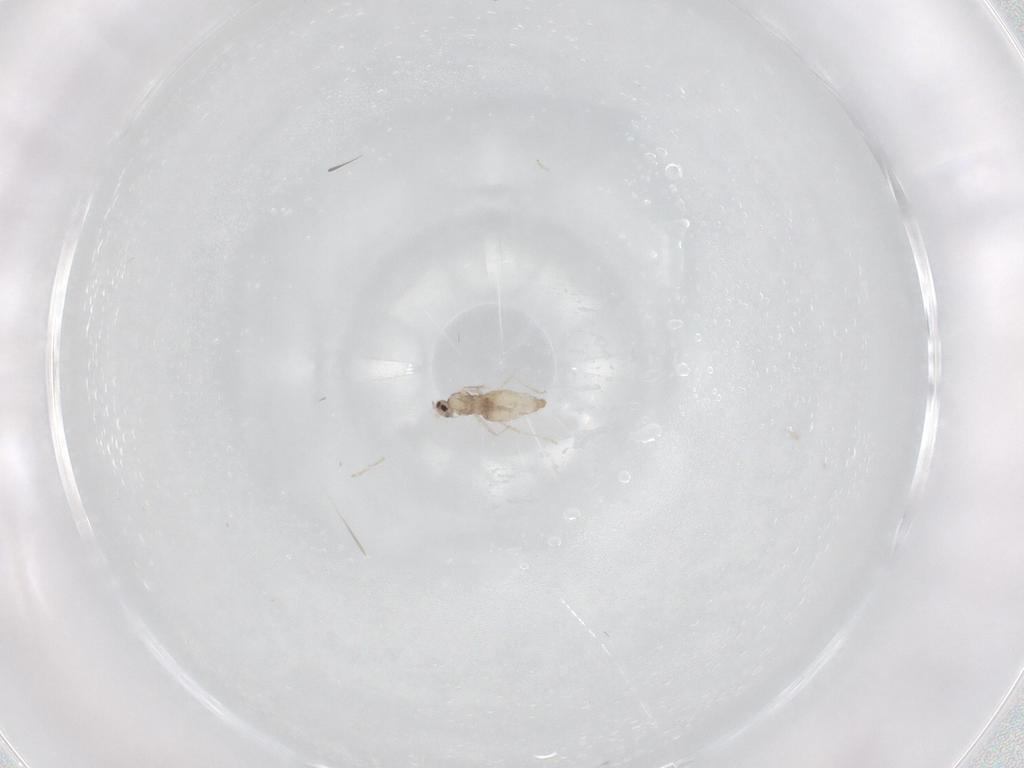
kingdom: Animalia
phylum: Arthropoda
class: Insecta
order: Diptera
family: Cecidomyiidae
